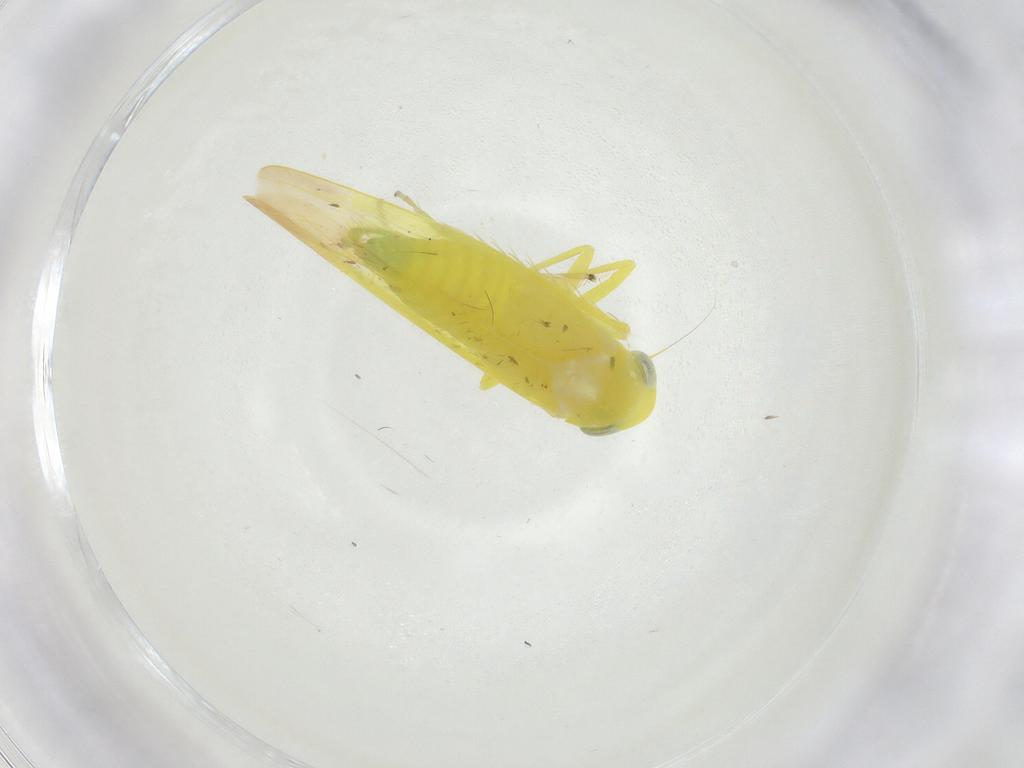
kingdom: Animalia
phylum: Arthropoda
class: Insecta
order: Hemiptera
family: Cicadellidae
